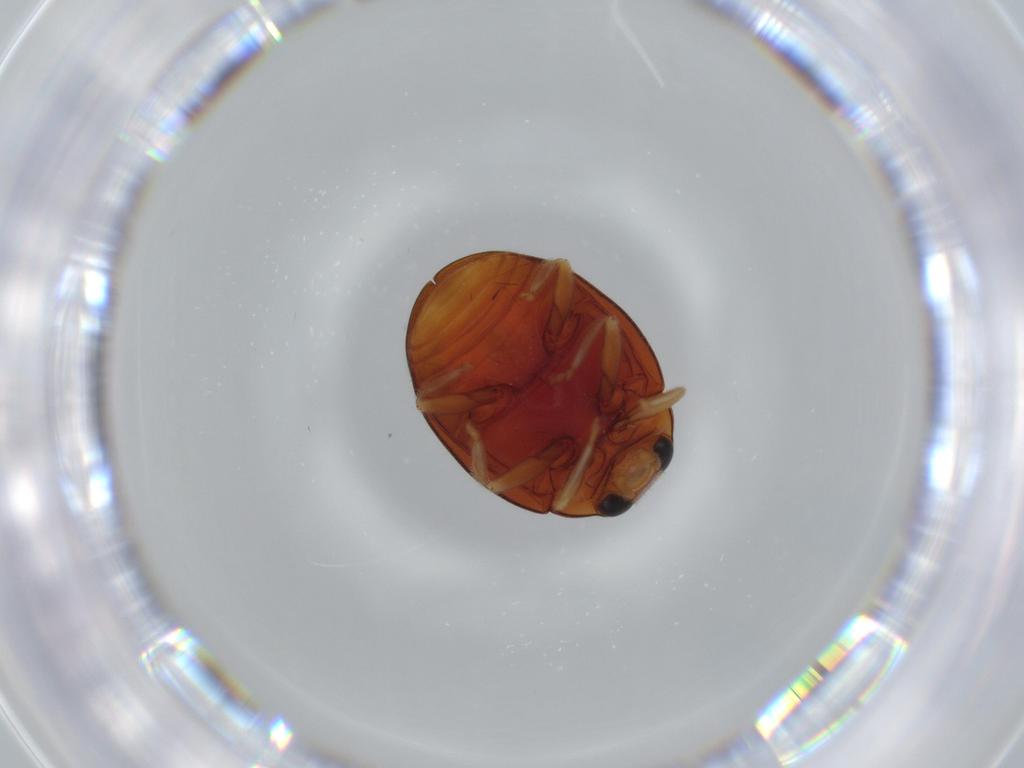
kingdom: Animalia
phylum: Arthropoda
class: Insecta
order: Coleoptera
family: Coccinellidae
